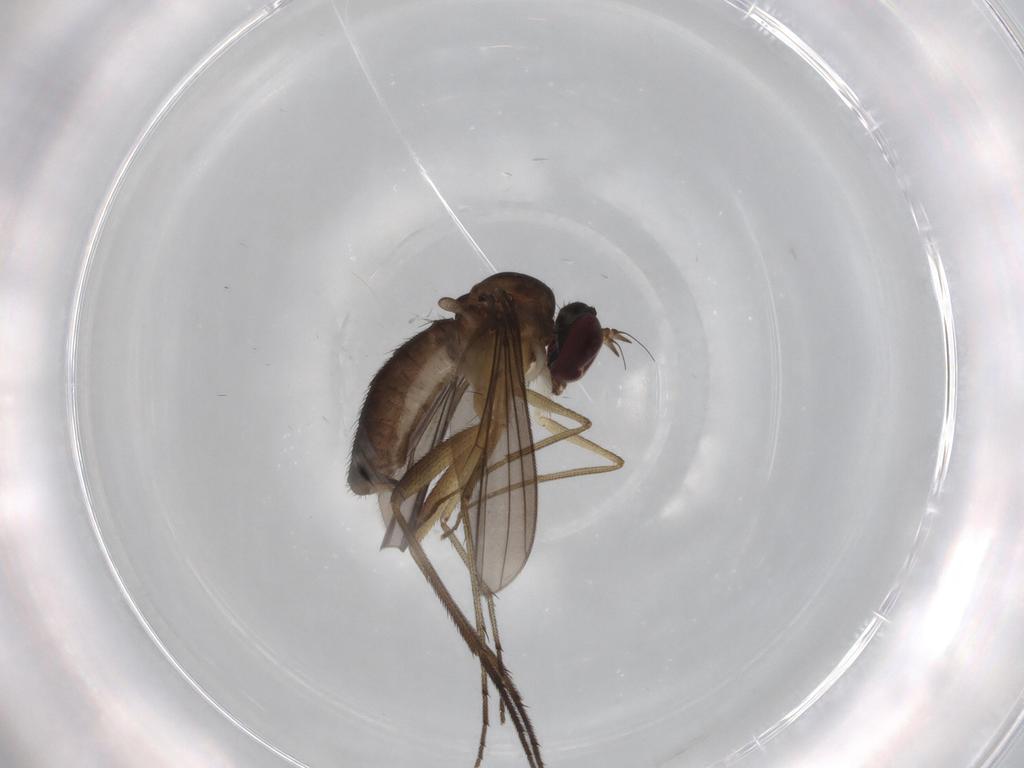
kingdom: Animalia
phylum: Arthropoda
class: Insecta
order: Diptera
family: Dolichopodidae
